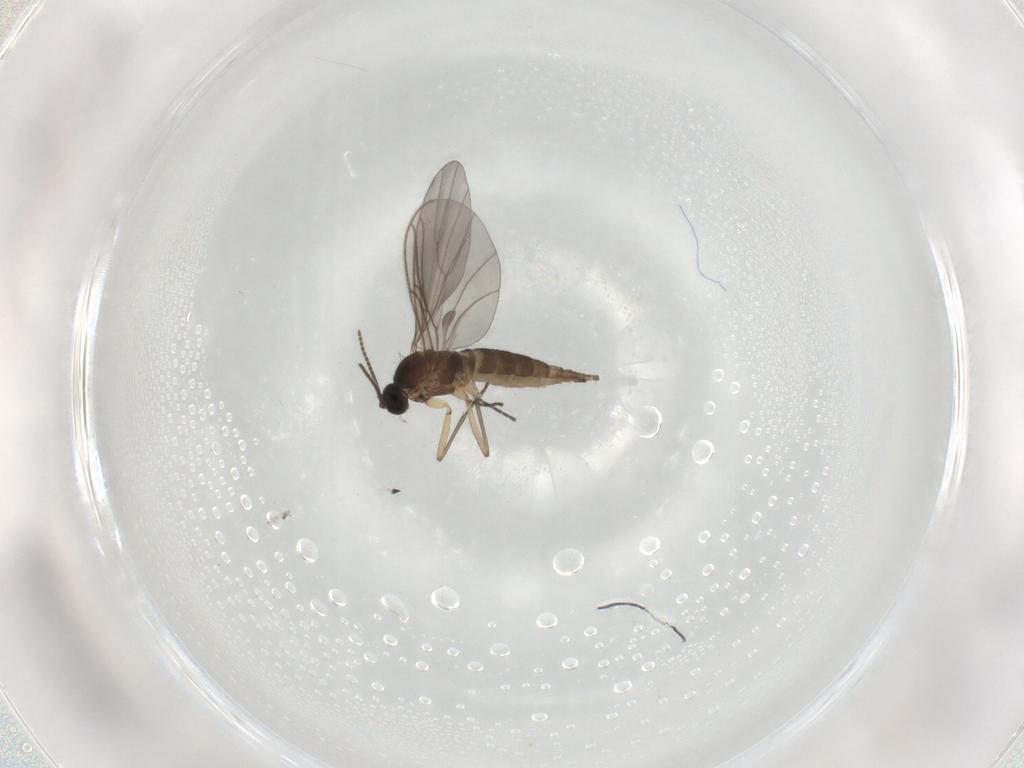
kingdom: Animalia
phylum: Arthropoda
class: Insecta
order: Diptera
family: Sciaridae
